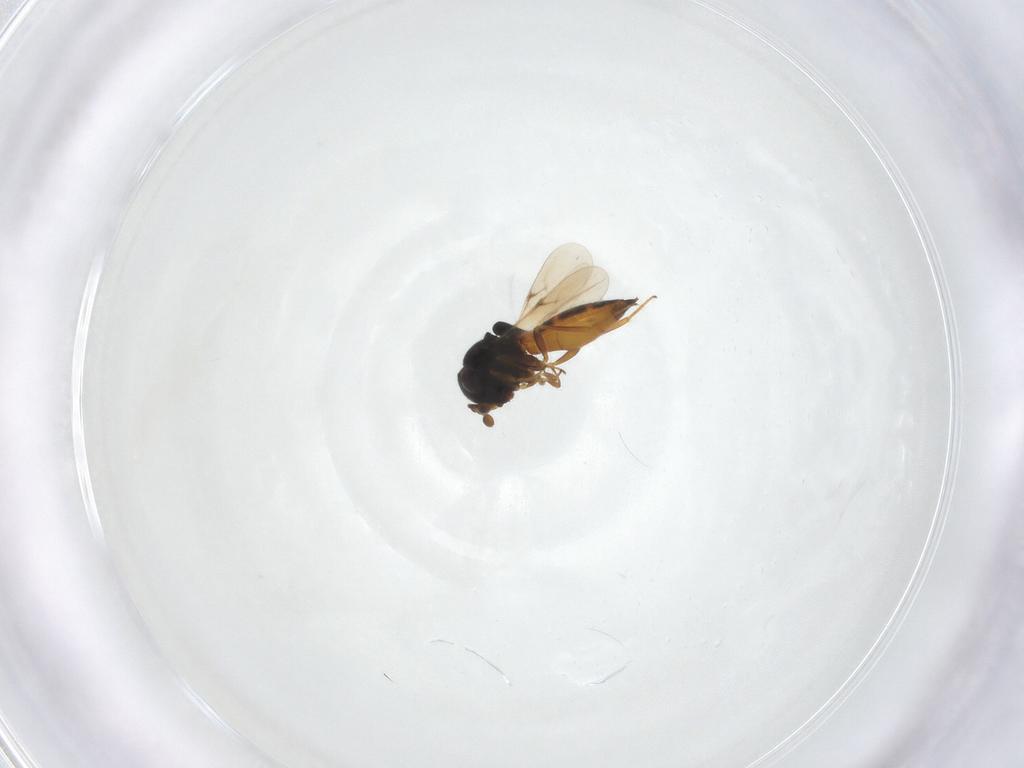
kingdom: Animalia
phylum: Arthropoda
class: Insecta
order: Hymenoptera
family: Scelionidae
